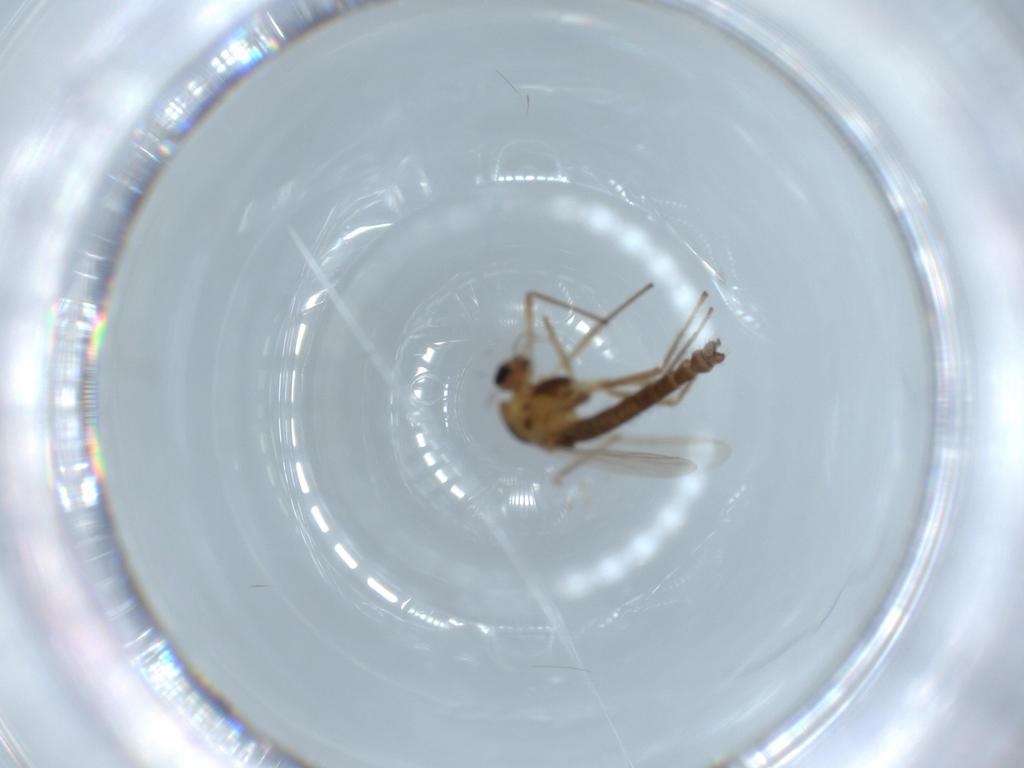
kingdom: Animalia
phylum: Arthropoda
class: Insecta
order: Diptera
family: Chironomidae
